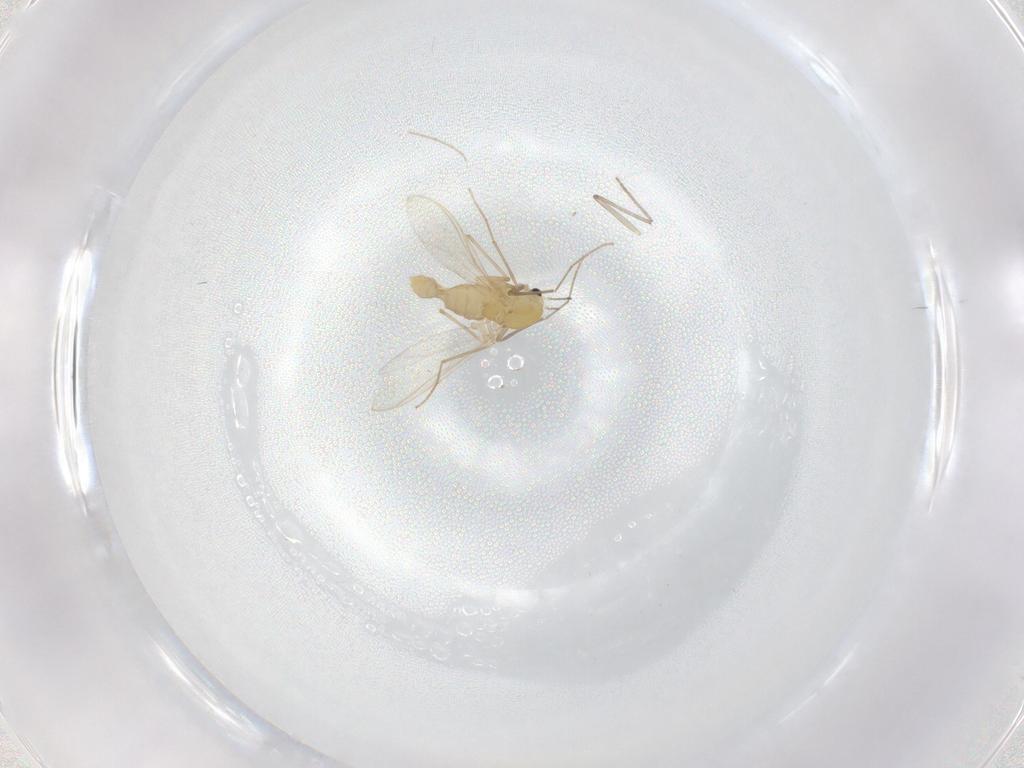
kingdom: Animalia
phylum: Arthropoda
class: Insecta
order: Diptera
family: Chironomidae
